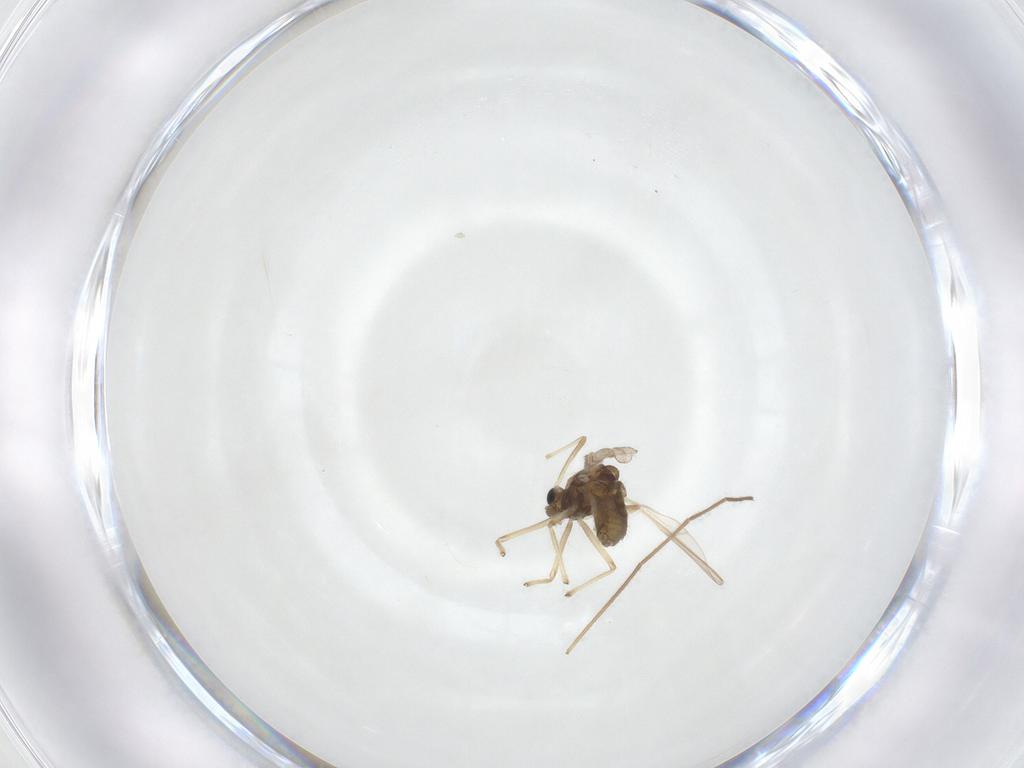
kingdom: Animalia
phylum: Arthropoda
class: Insecta
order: Diptera
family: Chironomidae
